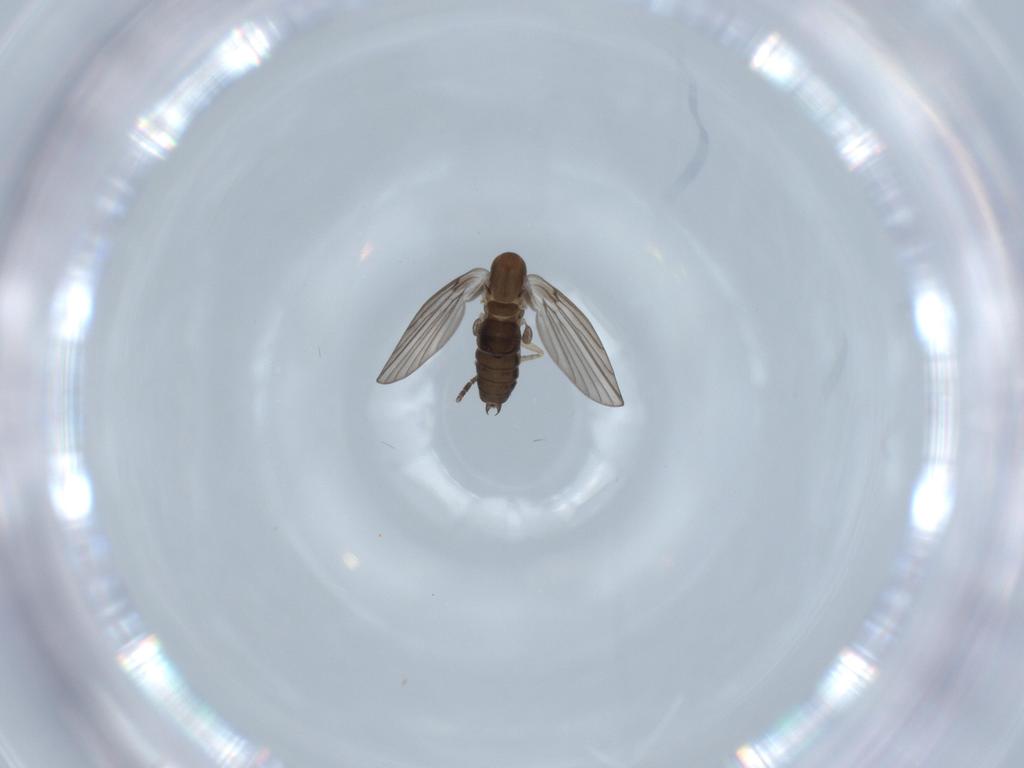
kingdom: Animalia
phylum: Arthropoda
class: Insecta
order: Diptera
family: Psychodidae
